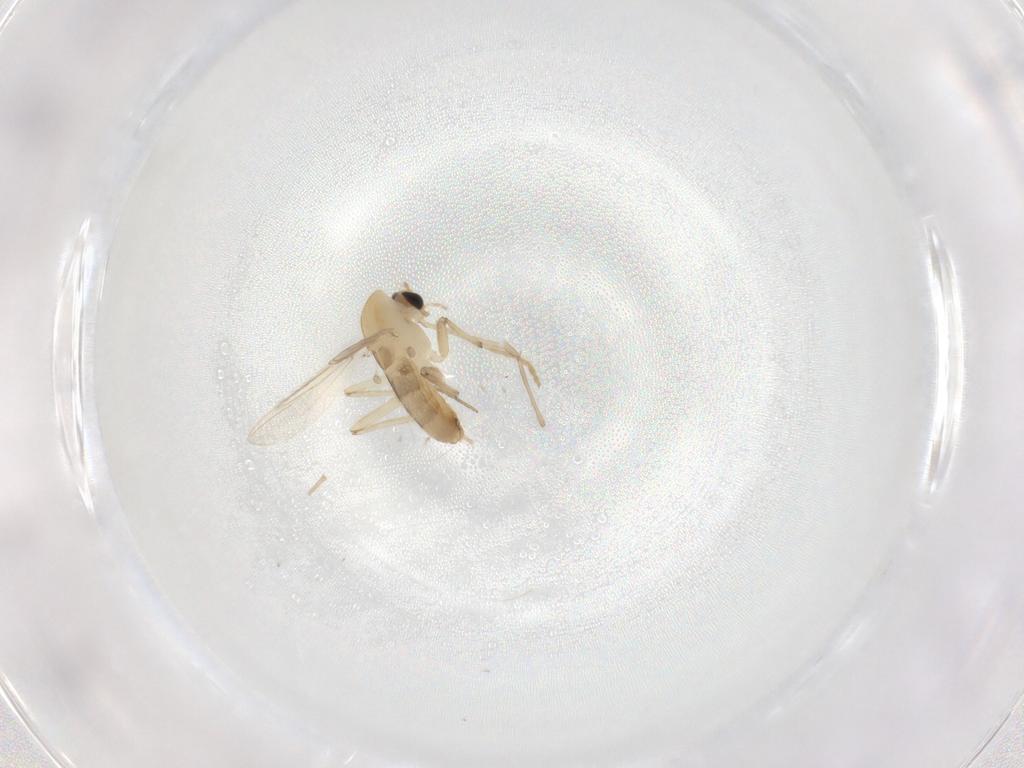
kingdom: Animalia
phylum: Arthropoda
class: Insecta
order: Diptera
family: Chironomidae
